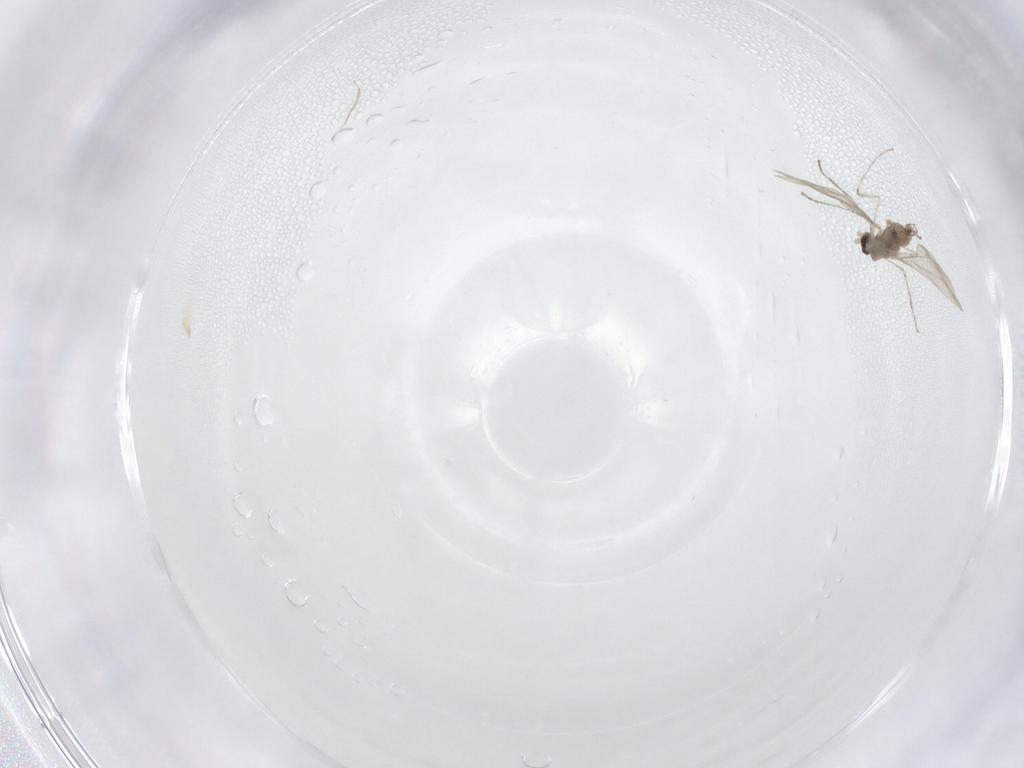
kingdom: Animalia
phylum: Arthropoda
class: Insecta
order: Diptera
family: Cecidomyiidae
